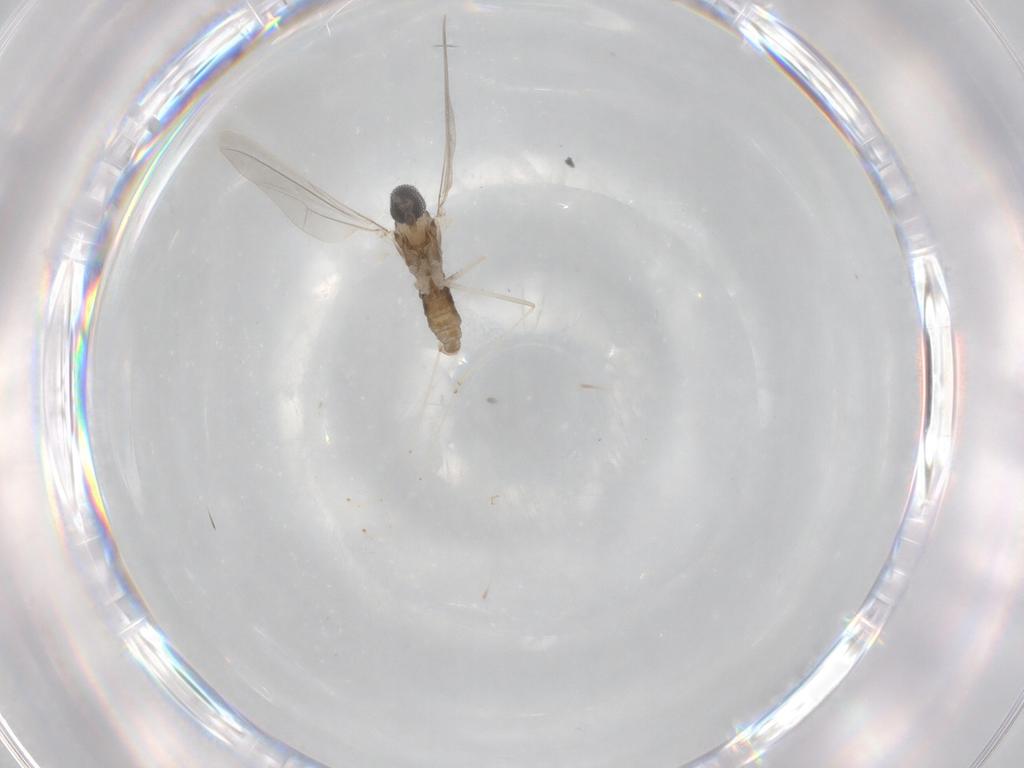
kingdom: Animalia
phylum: Arthropoda
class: Insecta
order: Diptera
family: Cecidomyiidae
